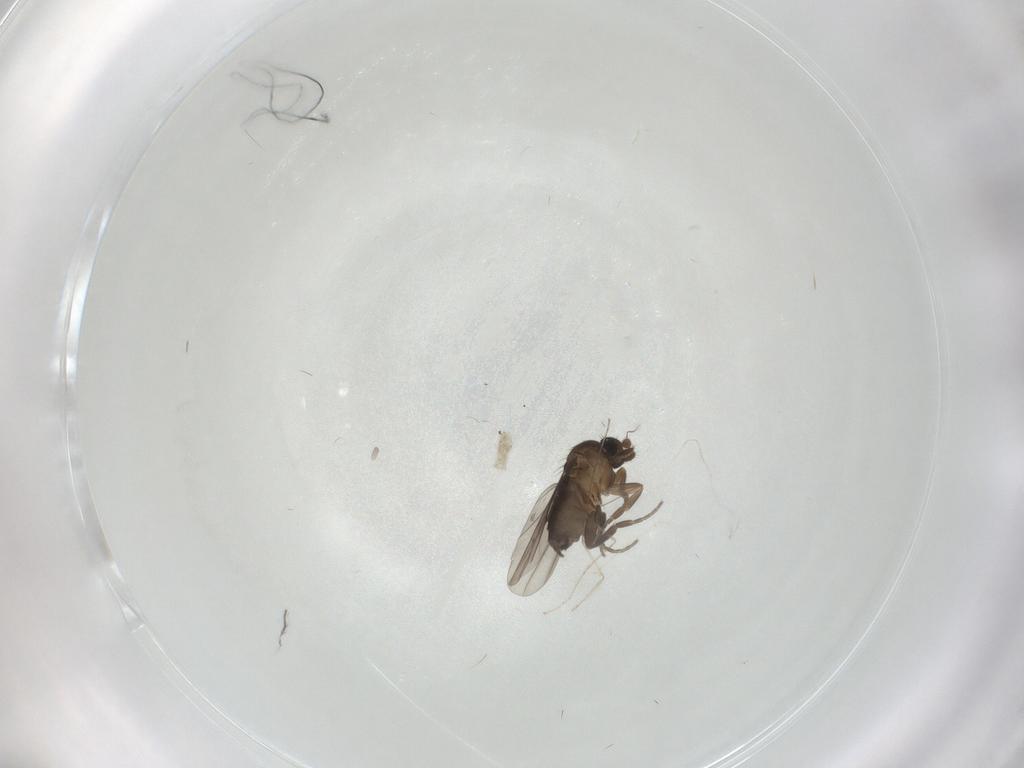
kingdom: Animalia
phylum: Arthropoda
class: Insecta
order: Diptera
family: Phoridae
